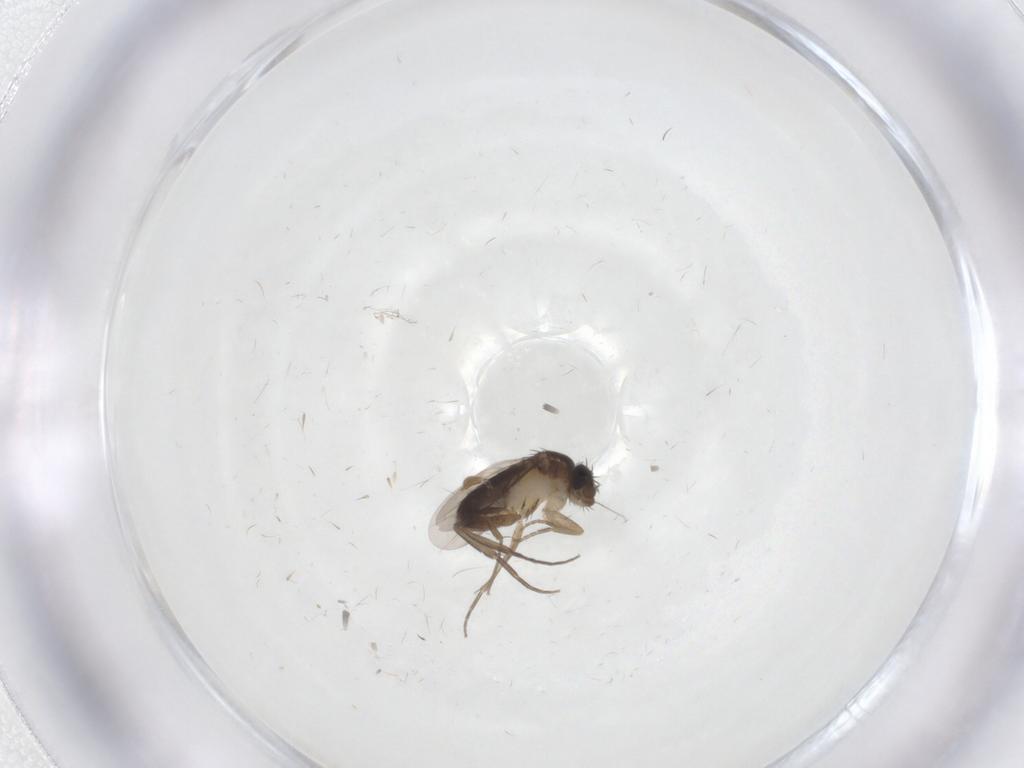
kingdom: Animalia
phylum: Arthropoda
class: Insecta
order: Diptera
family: Phoridae
